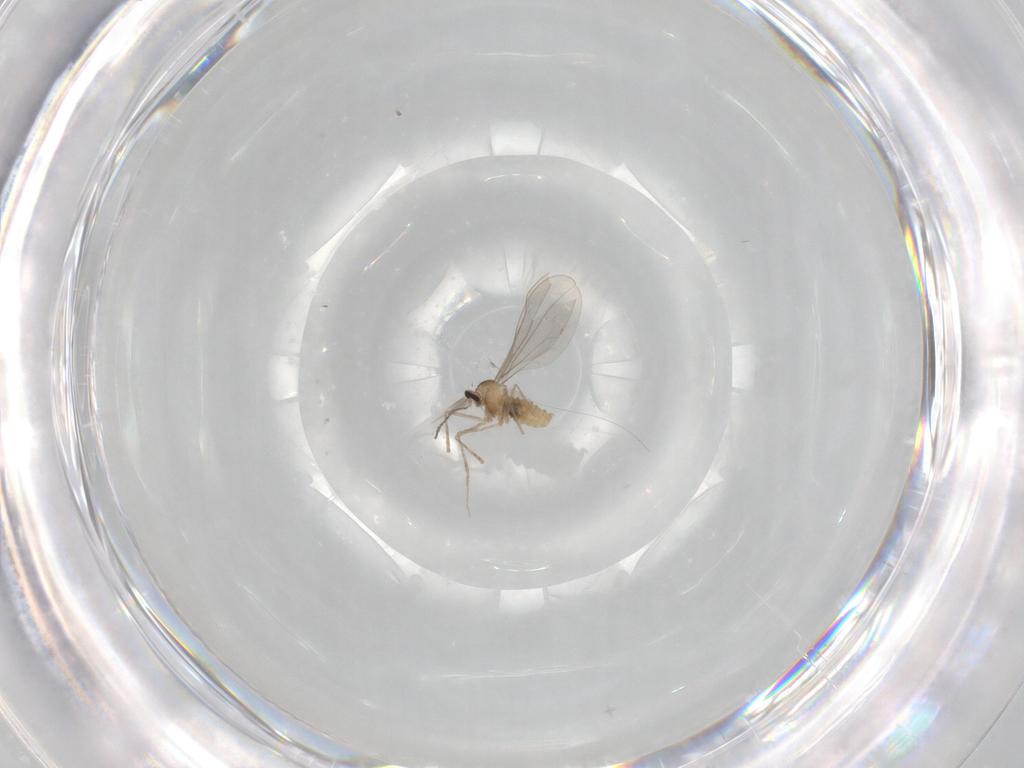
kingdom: Animalia
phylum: Arthropoda
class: Insecta
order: Diptera
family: Cecidomyiidae
